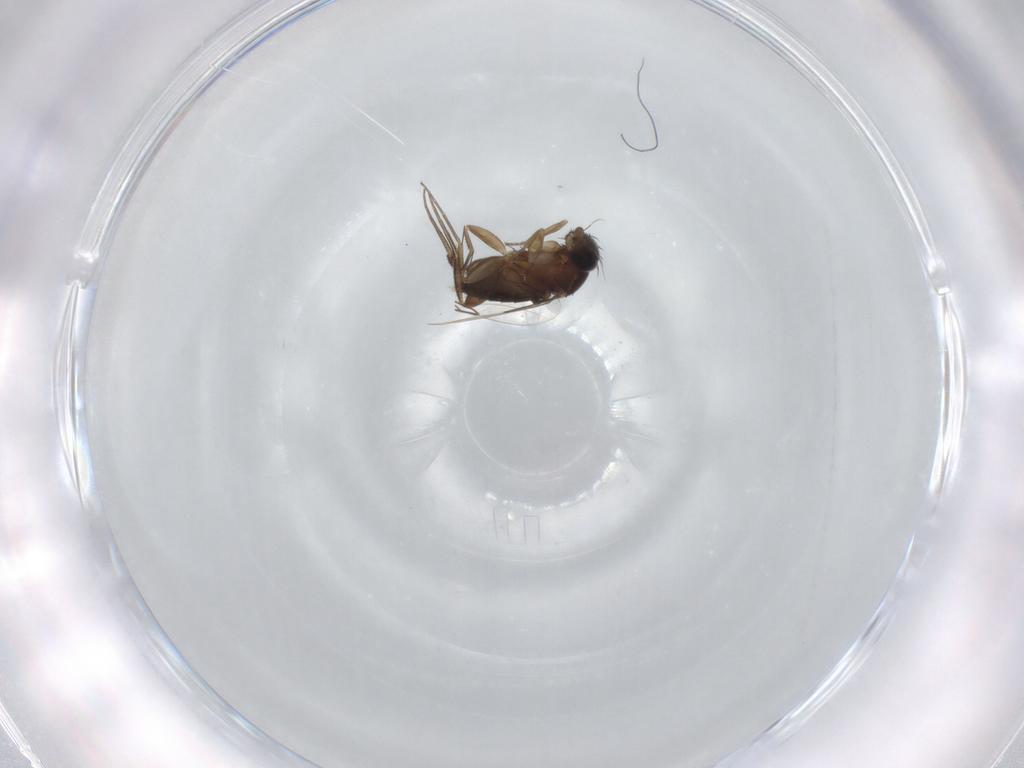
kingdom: Animalia
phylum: Arthropoda
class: Insecta
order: Diptera
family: Phoridae
